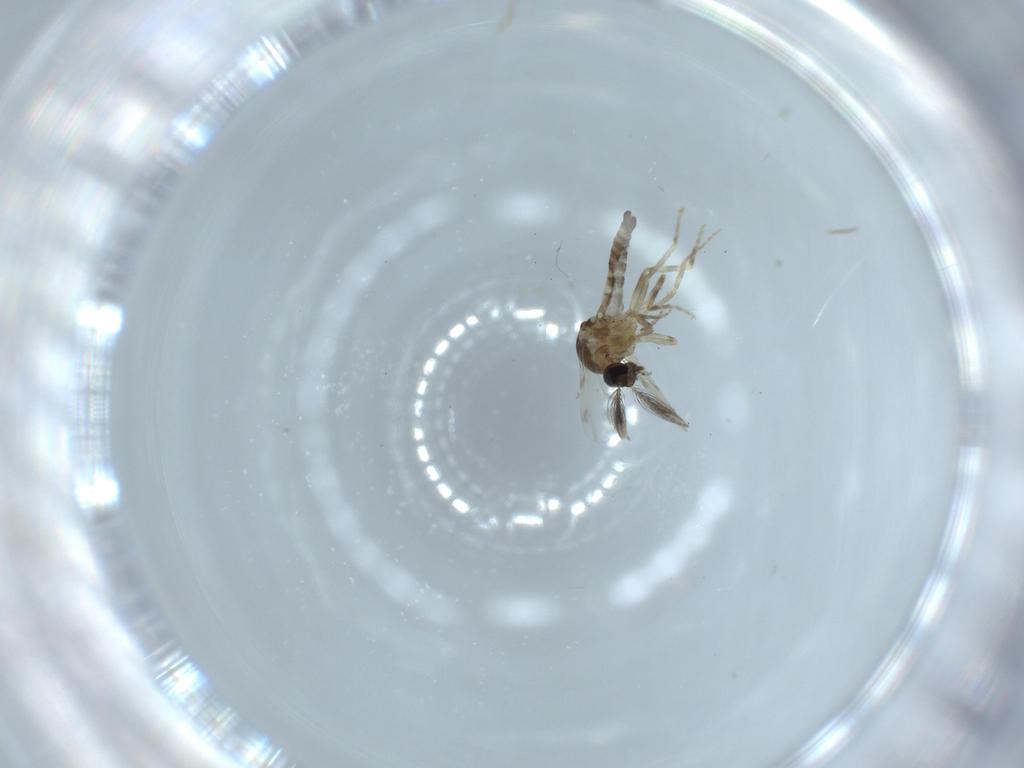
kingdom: Animalia
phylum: Arthropoda
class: Insecta
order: Diptera
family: Ceratopogonidae
